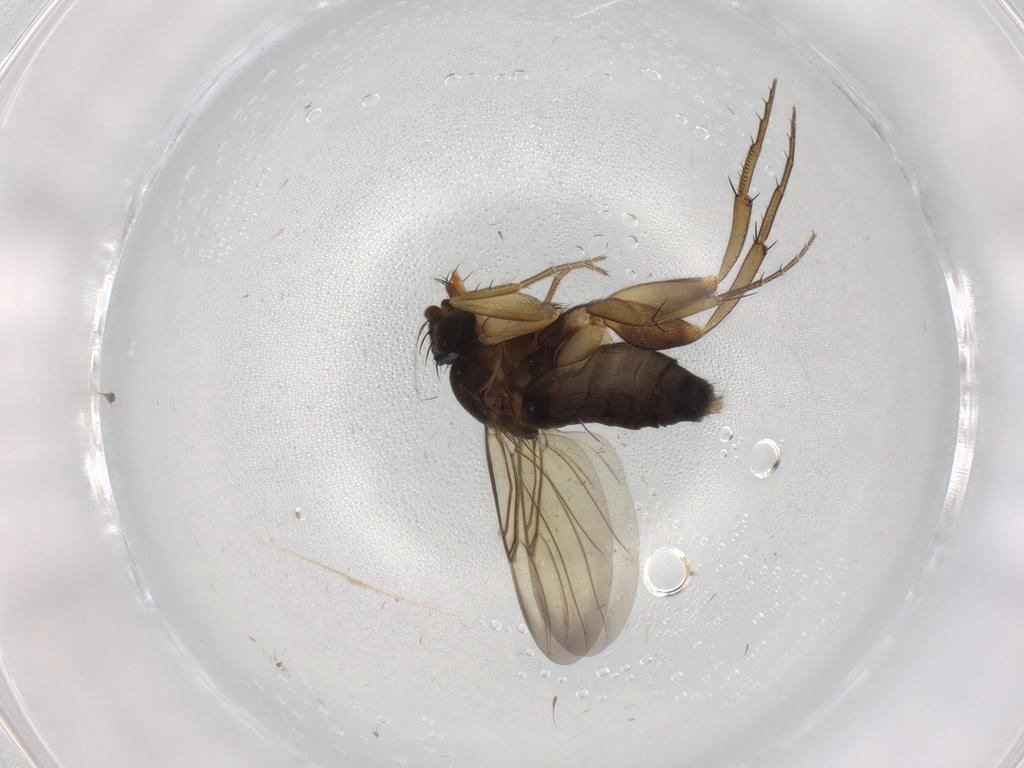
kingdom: Animalia
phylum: Arthropoda
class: Insecta
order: Diptera
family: Phoridae
